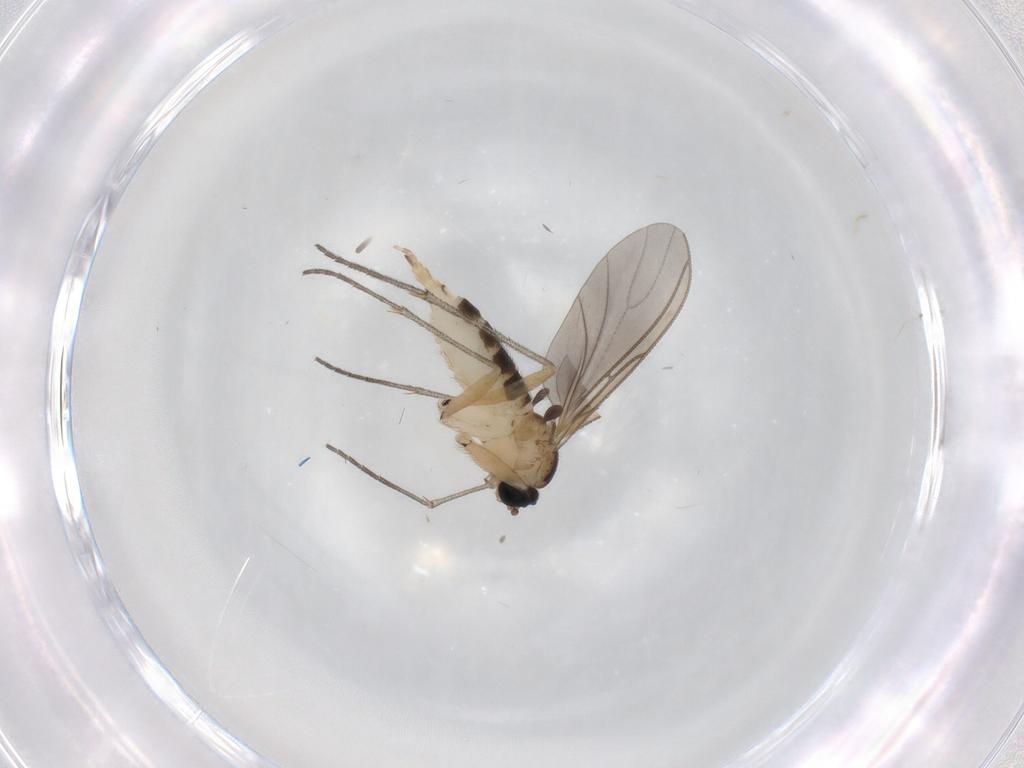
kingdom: Animalia
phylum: Arthropoda
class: Insecta
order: Diptera
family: Sciaridae
